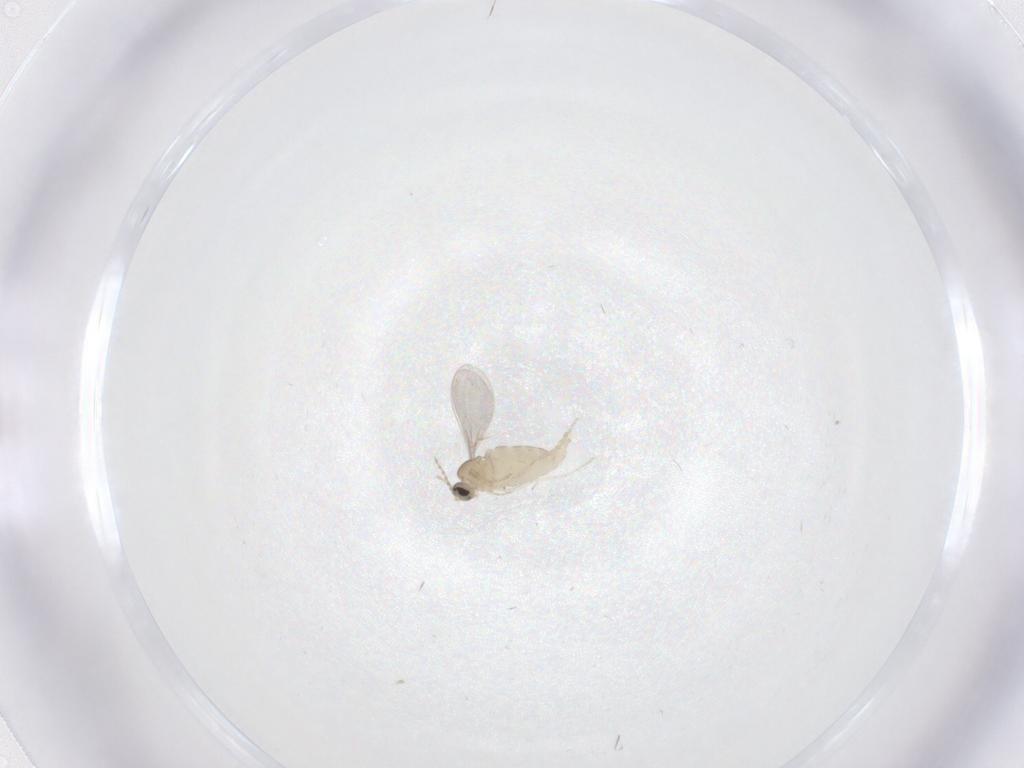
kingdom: Animalia
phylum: Arthropoda
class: Insecta
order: Diptera
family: Cecidomyiidae
